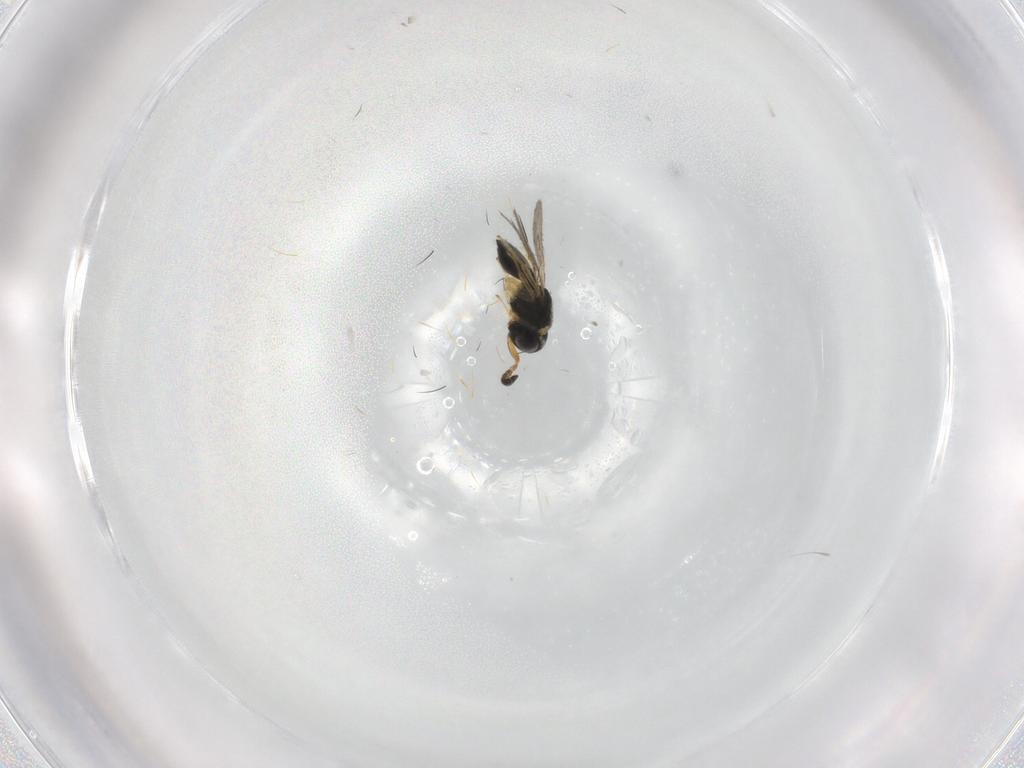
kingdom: Animalia
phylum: Arthropoda
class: Insecta
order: Hymenoptera
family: Scelionidae
